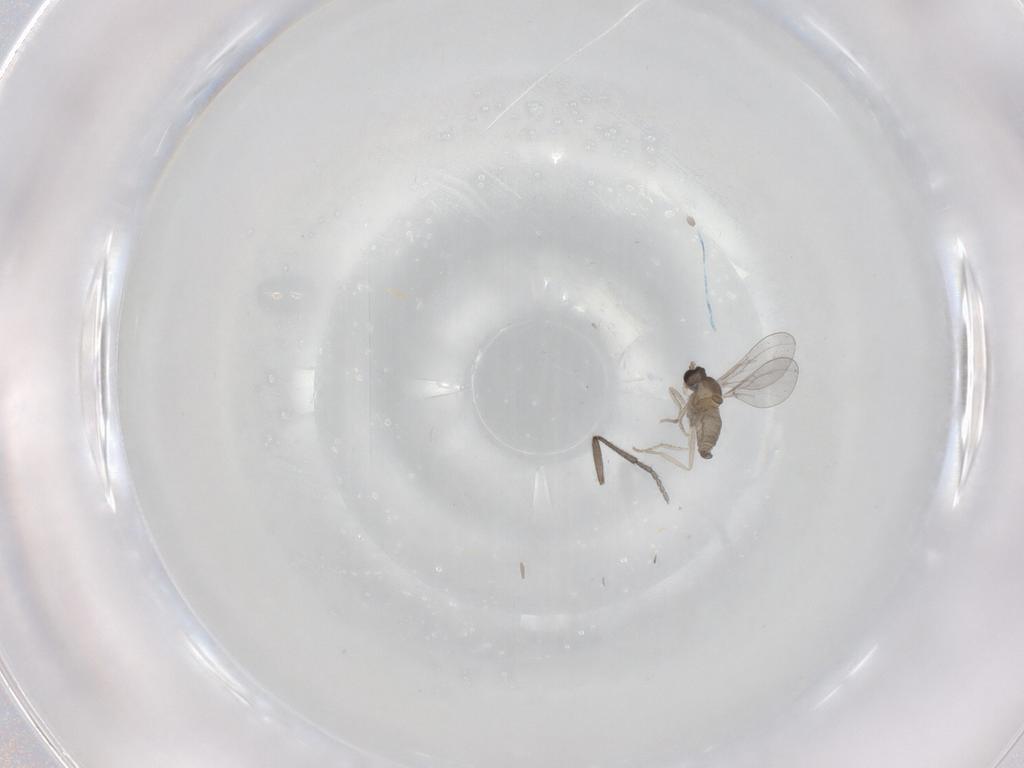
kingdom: Animalia
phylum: Arthropoda
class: Insecta
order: Diptera
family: Cecidomyiidae
